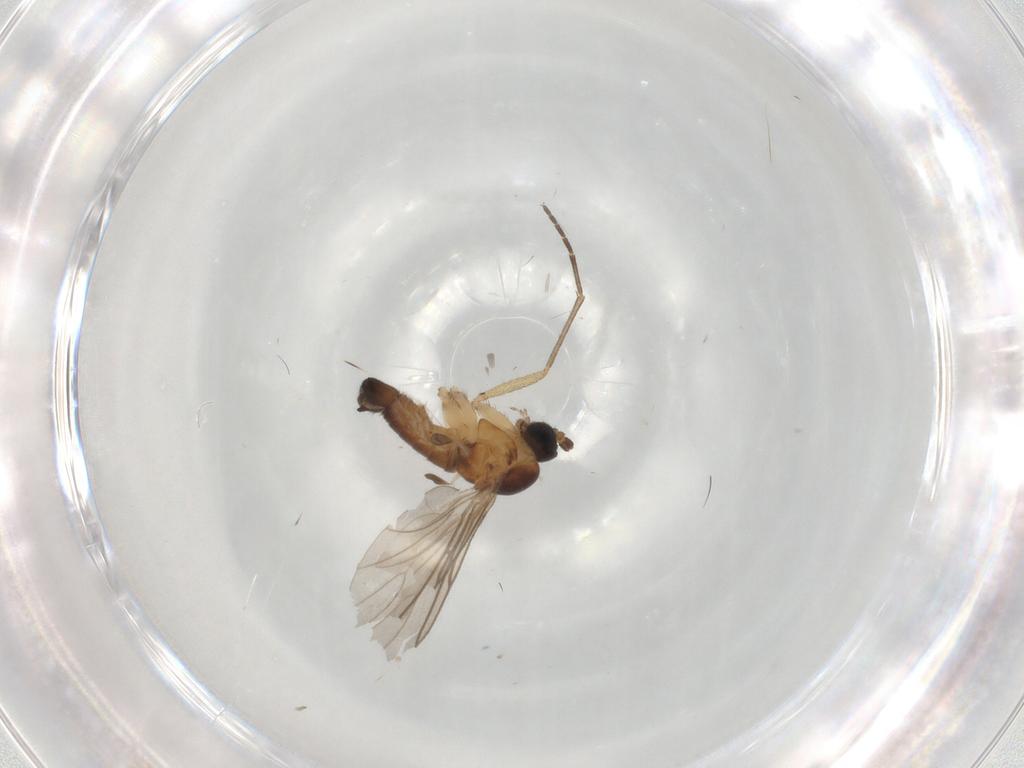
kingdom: Animalia
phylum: Arthropoda
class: Insecta
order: Diptera
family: Sciaridae
